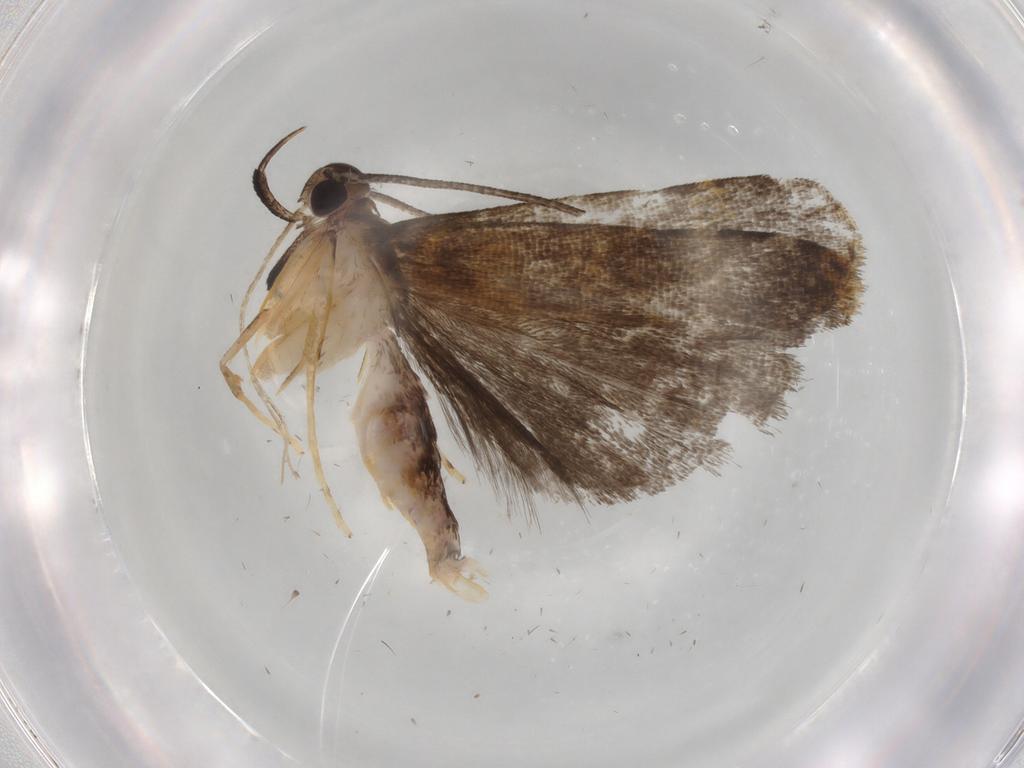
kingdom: Animalia
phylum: Arthropoda
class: Insecta
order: Lepidoptera
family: Cosmopterigidae
